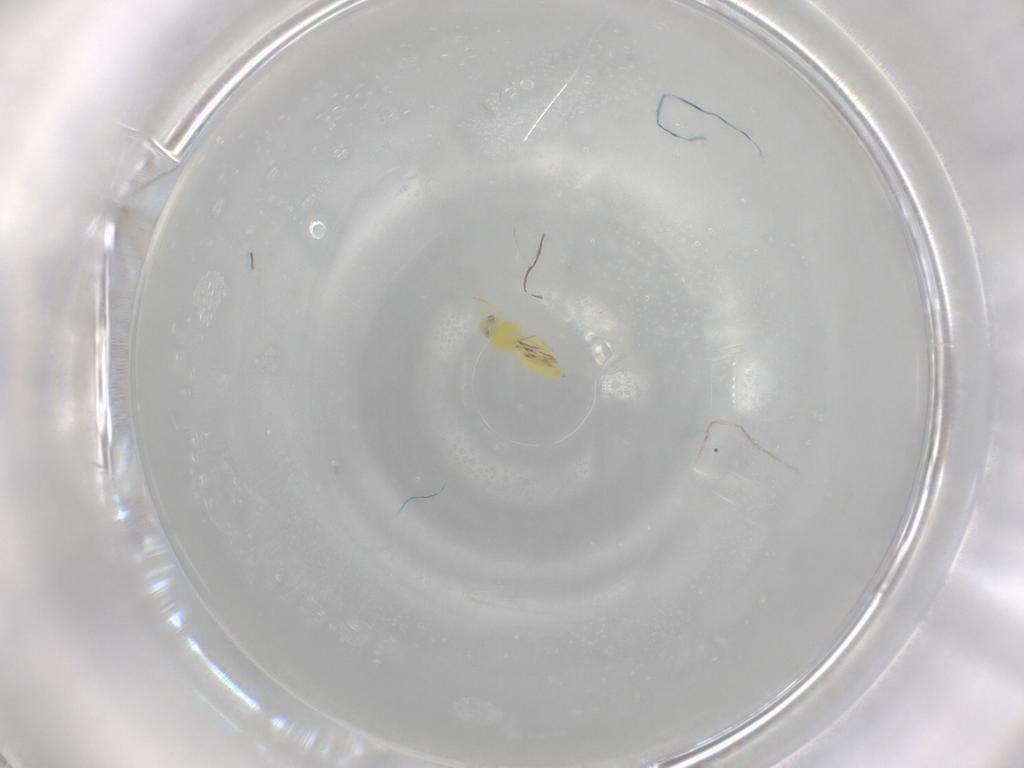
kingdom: Animalia
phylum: Arthropoda
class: Insecta
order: Hemiptera
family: Aleyrodidae
